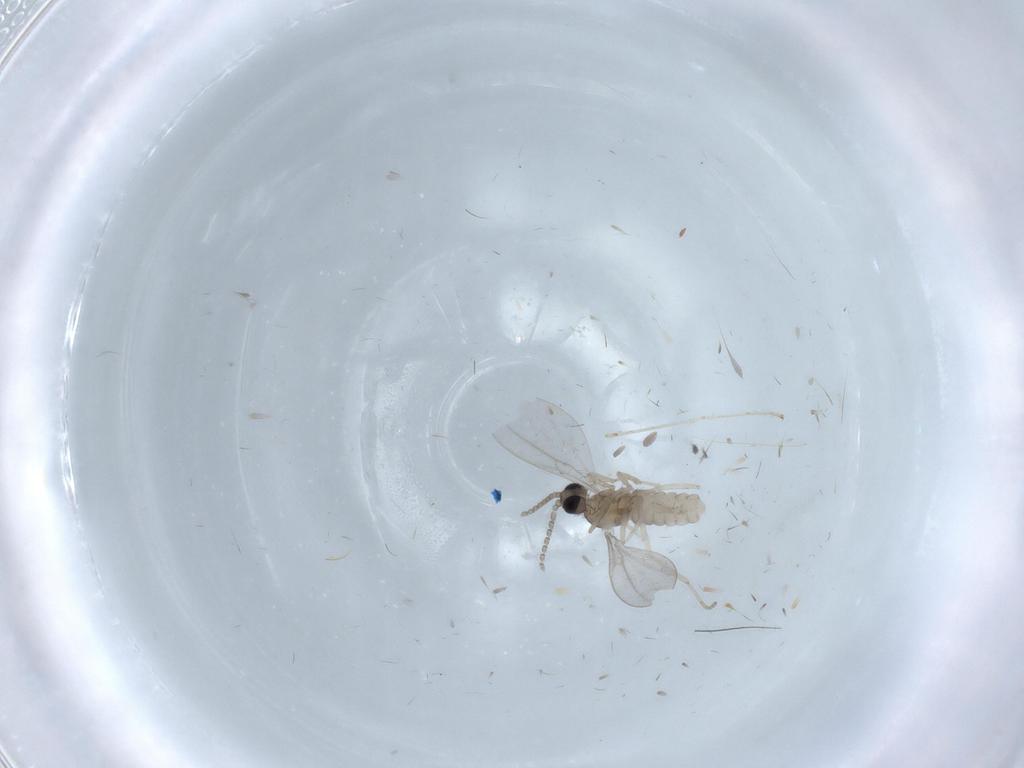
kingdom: Animalia
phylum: Arthropoda
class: Insecta
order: Diptera
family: Cecidomyiidae
